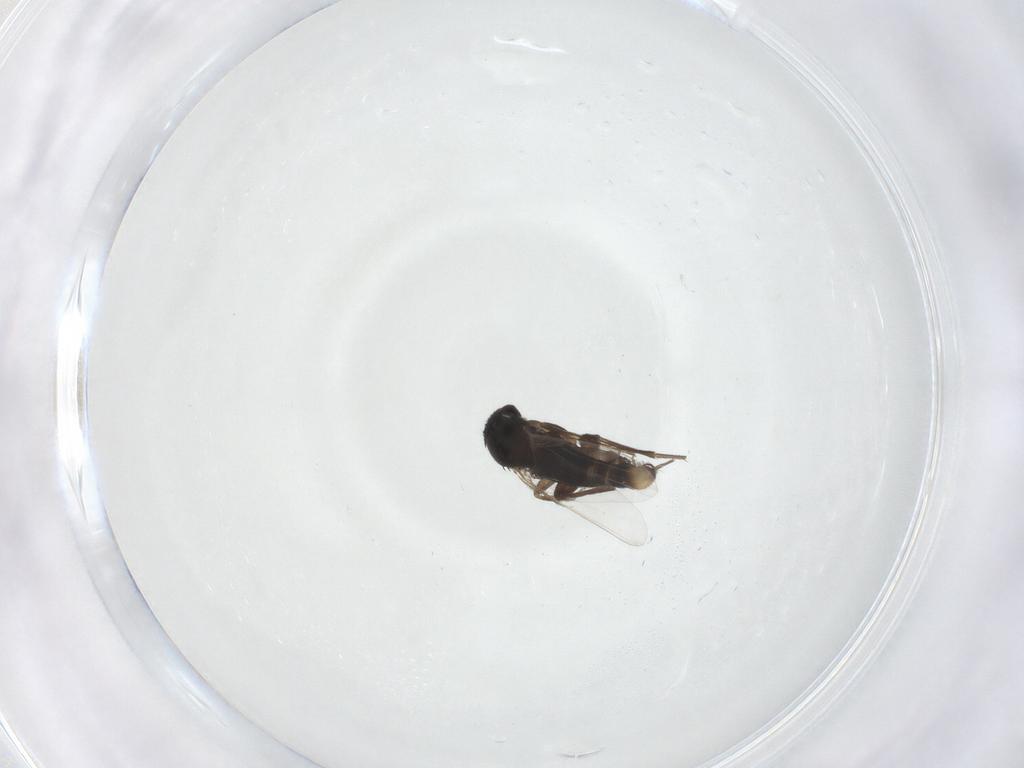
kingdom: Animalia
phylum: Arthropoda
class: Insecta
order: Diptera
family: Phoridae
